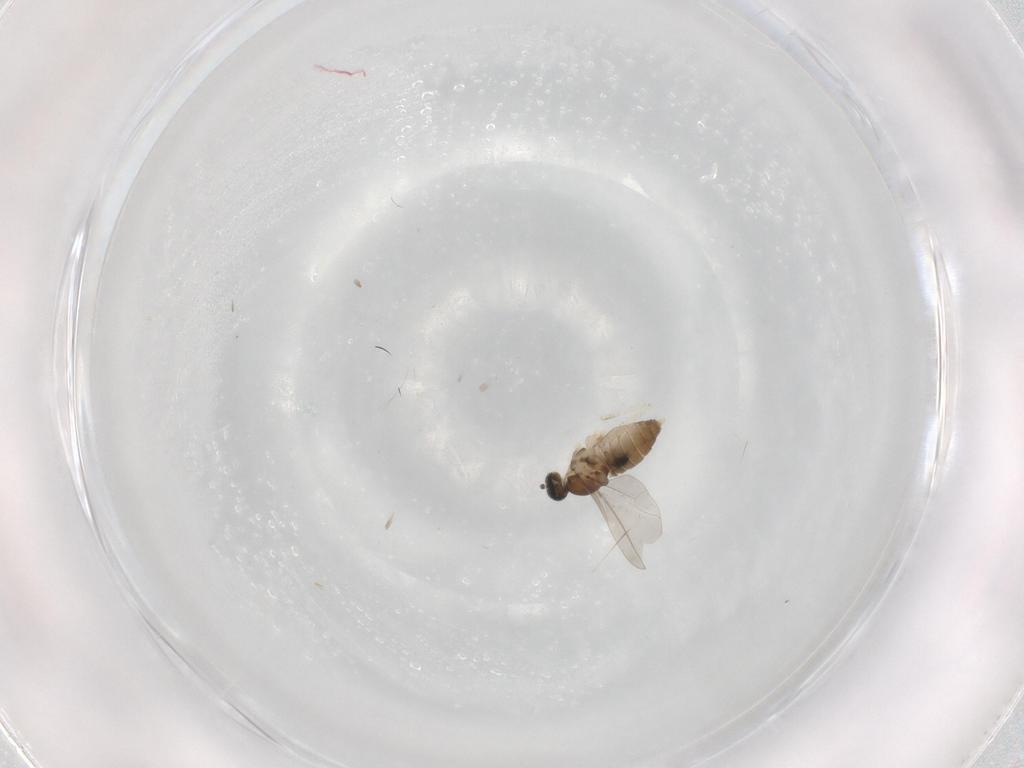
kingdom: Animalia
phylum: Arthropoda
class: Insecta
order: Diptera
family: Cecidomyiidae
